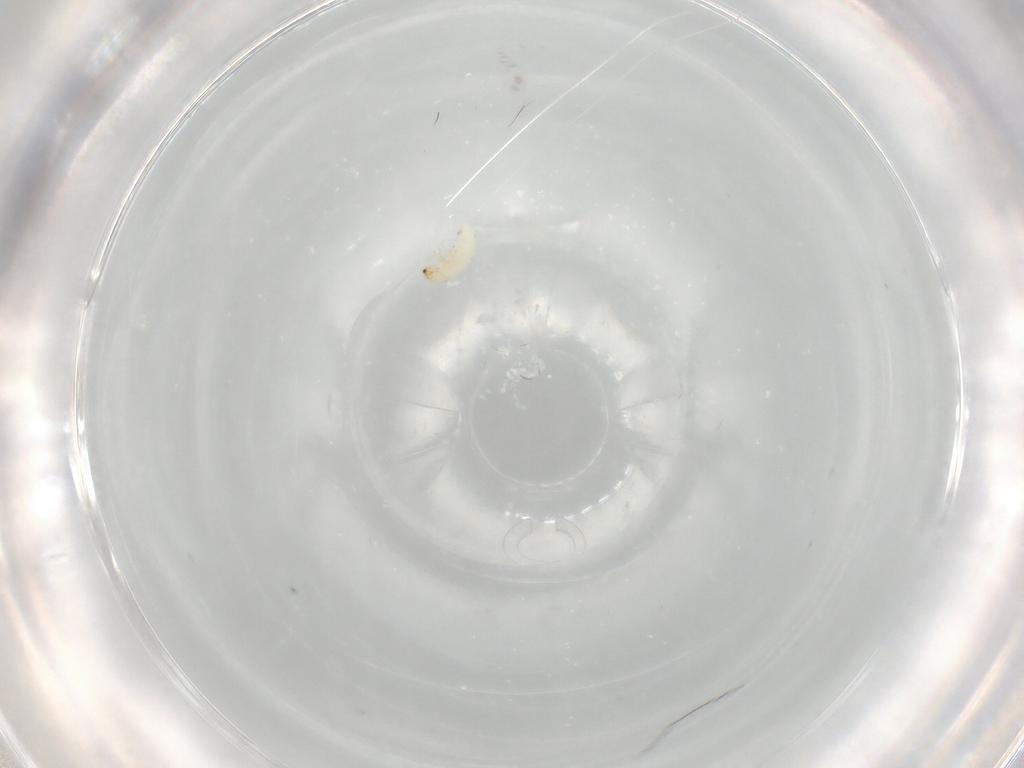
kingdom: Animalia
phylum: Arthropoda
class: Insecta
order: Coleoptera
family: Chrysomelidae
